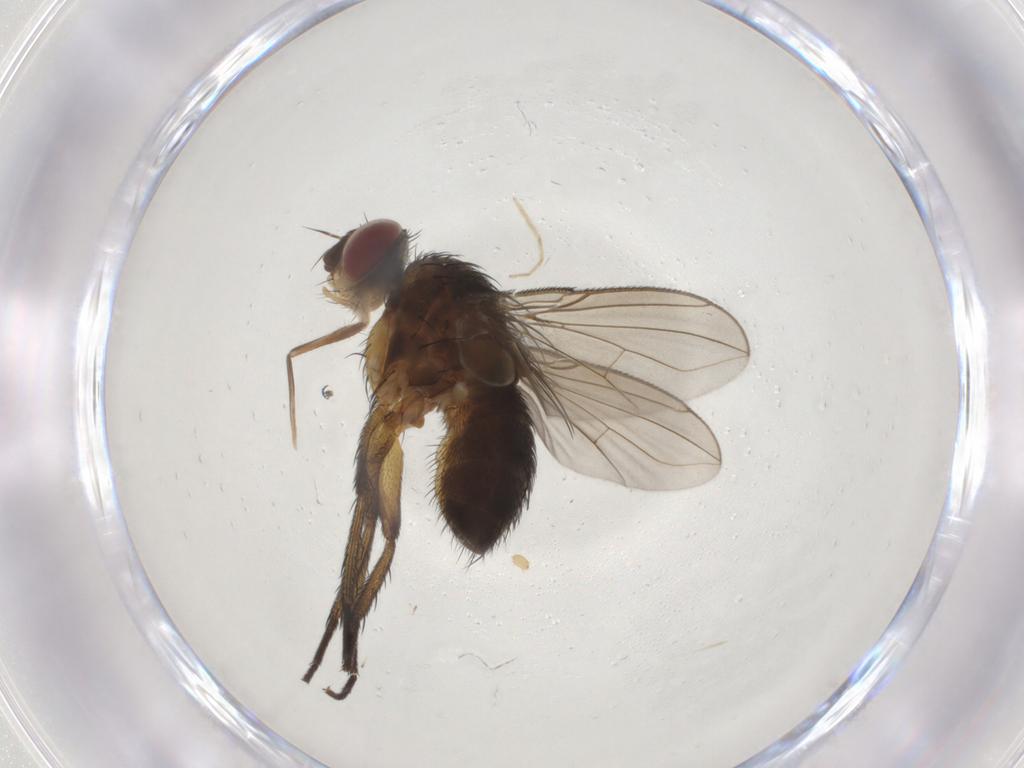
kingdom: Animalia
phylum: Arthropoda
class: Insecta
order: Diptera
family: Tachinidae
